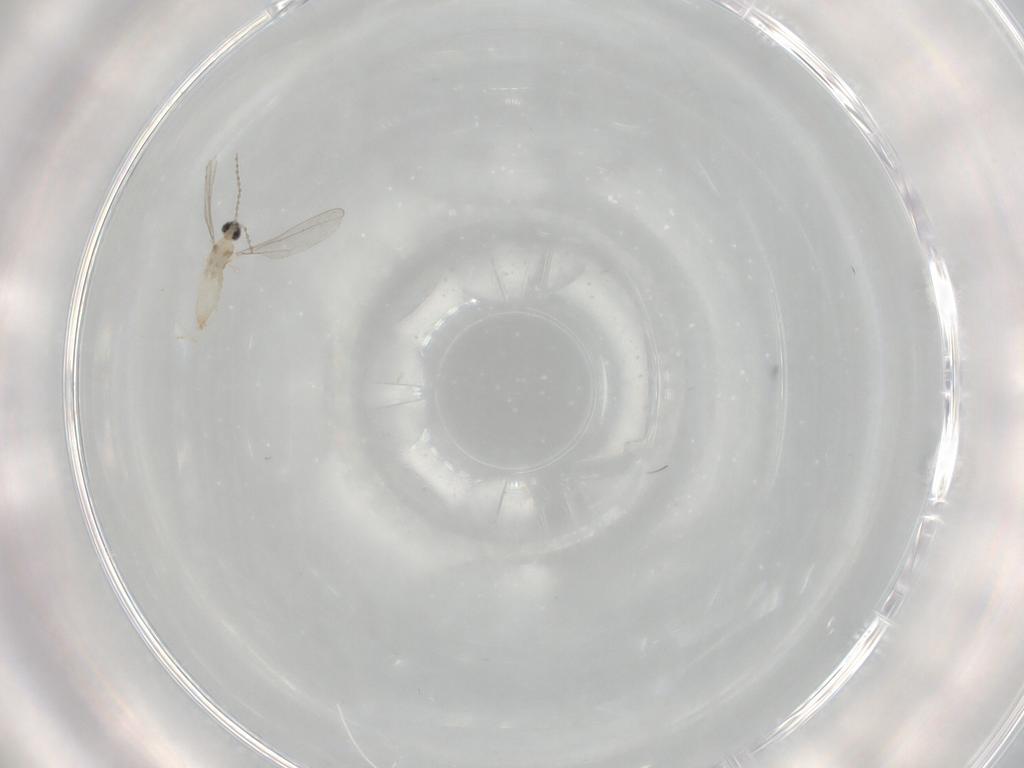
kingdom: Animalia
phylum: Arthropoda
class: Insecta
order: Diptera
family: Cecidomyiidae
